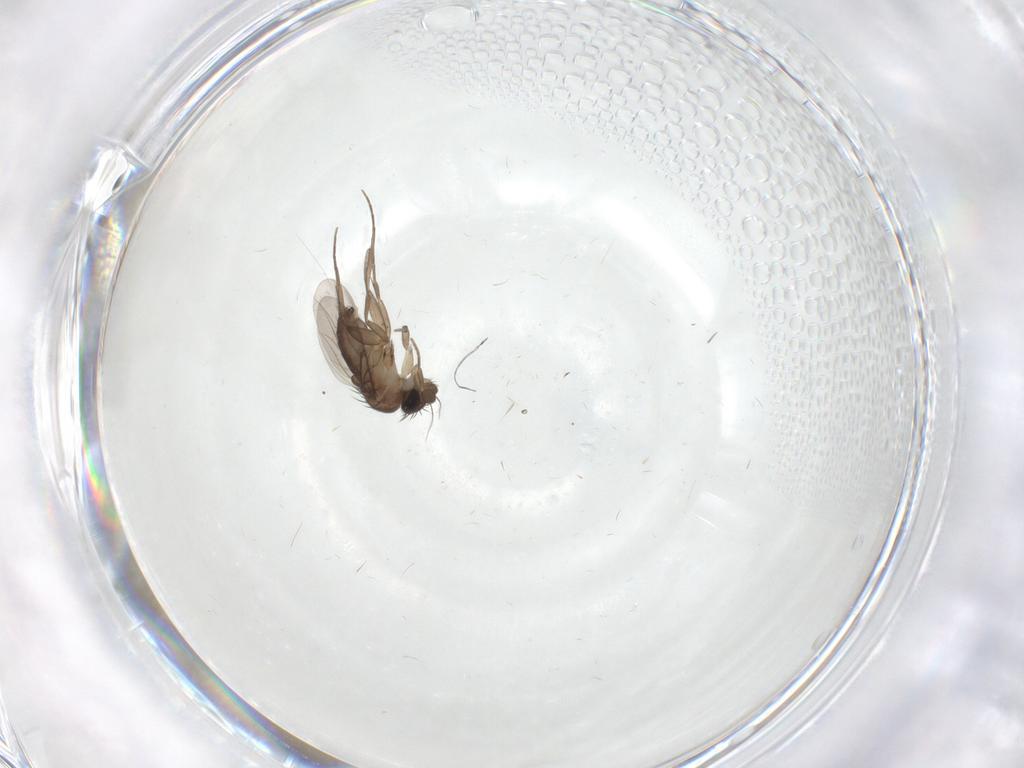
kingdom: Animalia
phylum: Arthropoda
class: Insecta
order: Diptera
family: Phoridae
